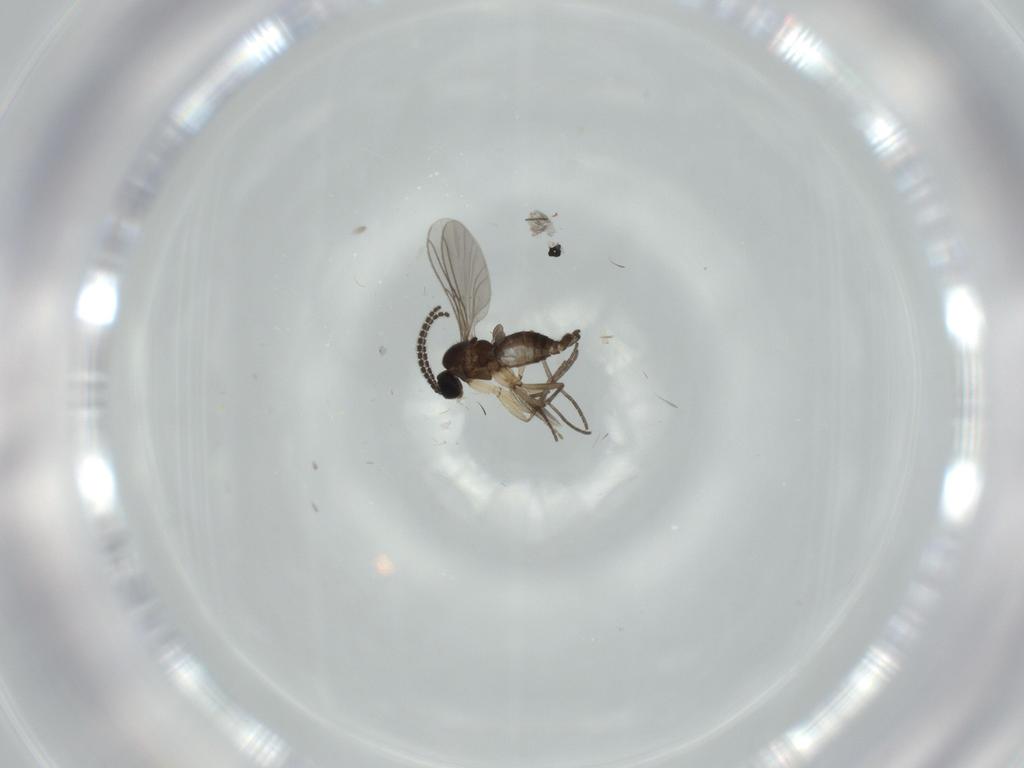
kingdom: Animalia
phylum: Arthropoda
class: Insecta
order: Diptera
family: Sciaridae
